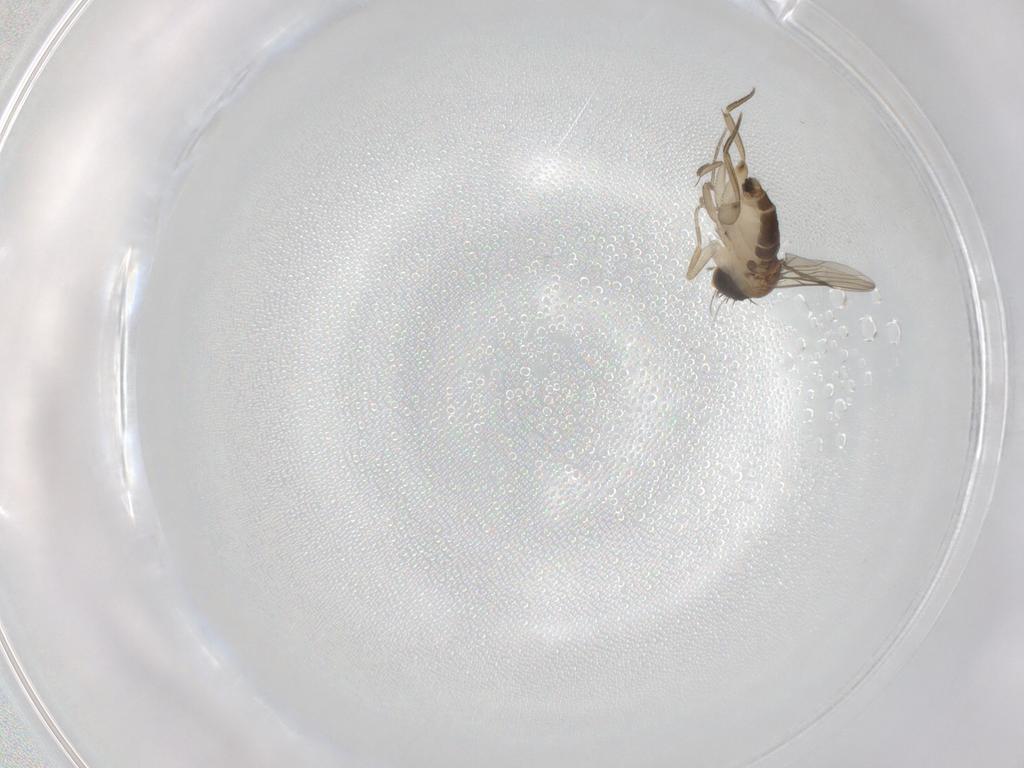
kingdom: Animalia
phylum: Arthropoda
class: Insecta
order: Diptera
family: Phoridae
